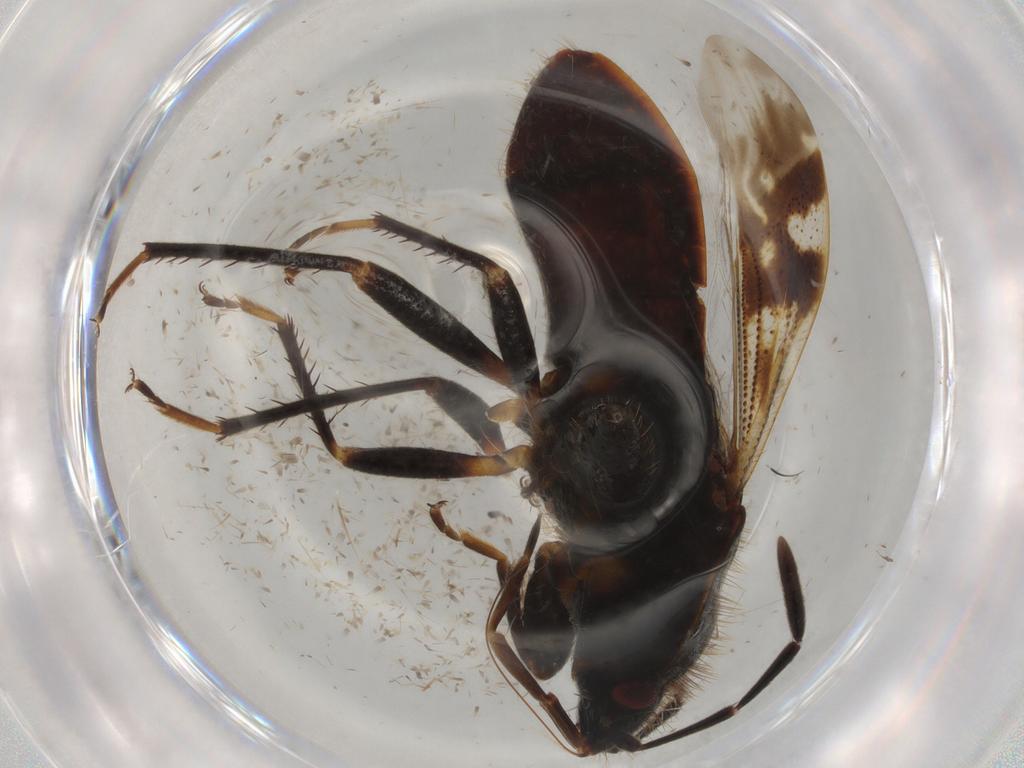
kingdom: Animalia
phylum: Arthropoda
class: Insecta
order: Hemiptera
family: Rhyparochromidae
